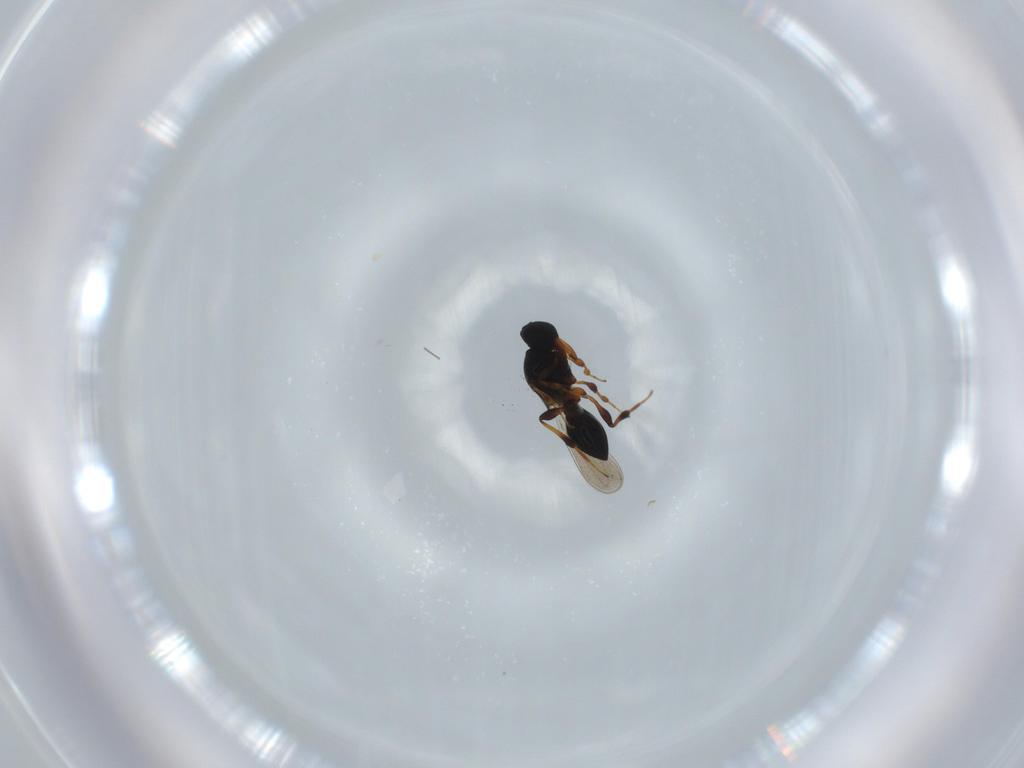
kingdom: Animalia
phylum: Arthropoda
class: Insecta
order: Hymenoptera
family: Platygastridae
